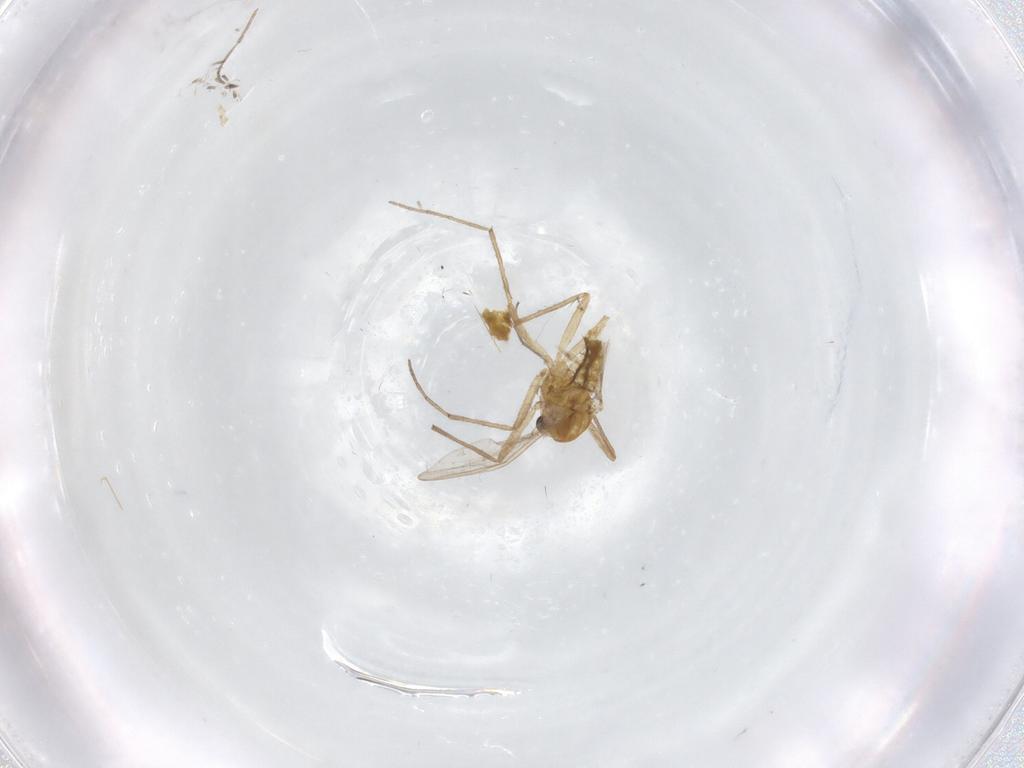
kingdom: Animalia
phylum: Arthropoda
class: Insecta
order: Diptera
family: Chironomidae
